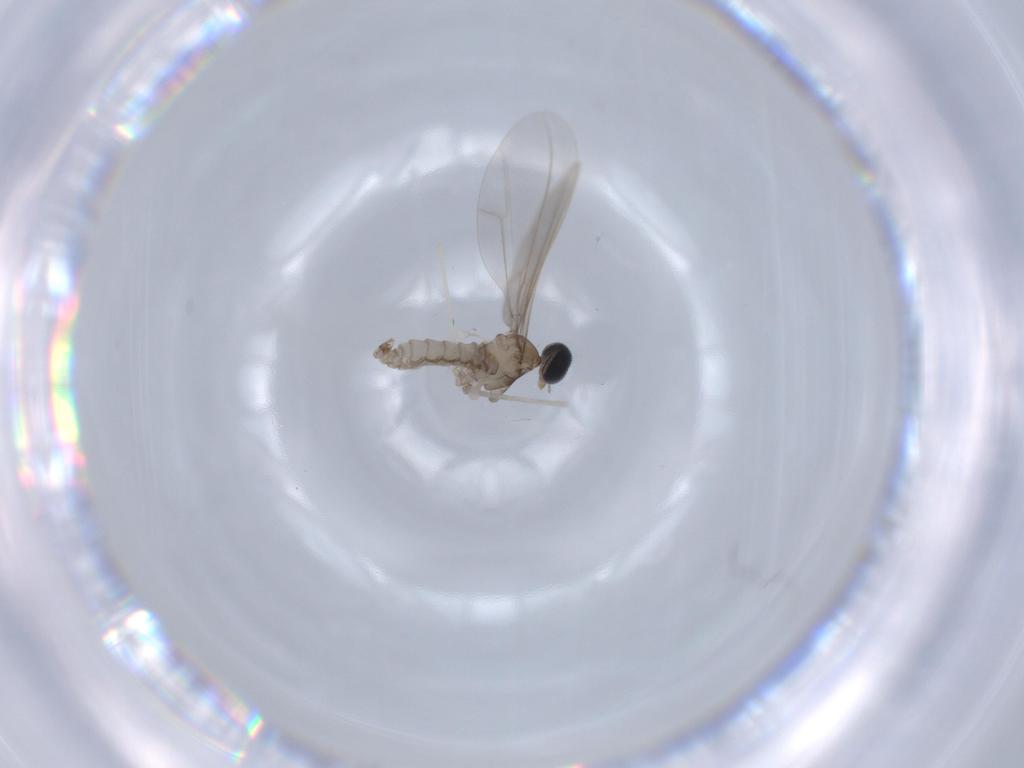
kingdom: Animalia
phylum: Arthropoda
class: Insecta
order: Diptera
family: Cecidomyiidae
